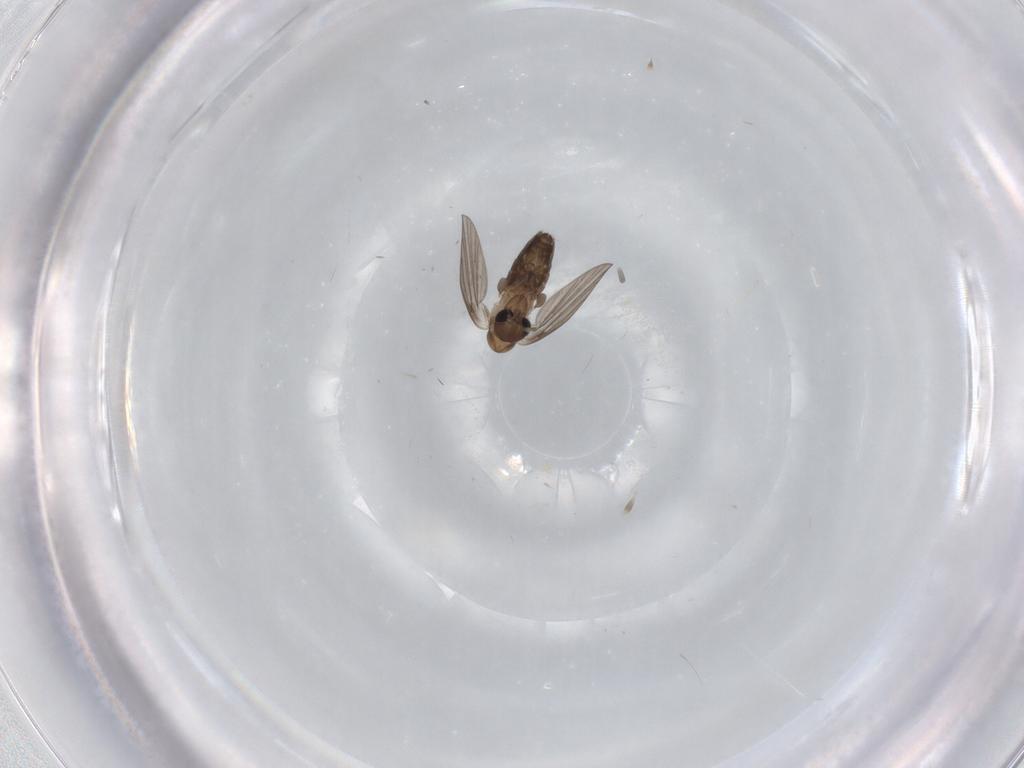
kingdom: Animalia
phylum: Arthropoda
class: Insecta
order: Diptera
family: Psychodidae
